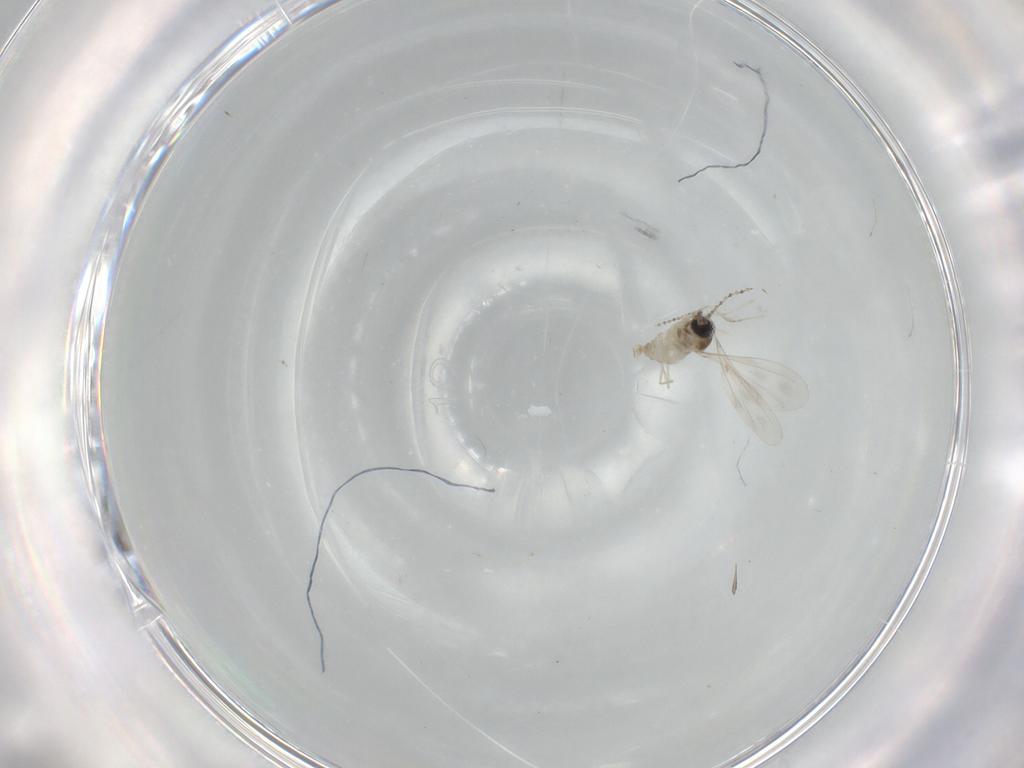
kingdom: Animalia
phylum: Arthropoda
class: Insecta
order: Diptera
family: Cecidomyiidae
